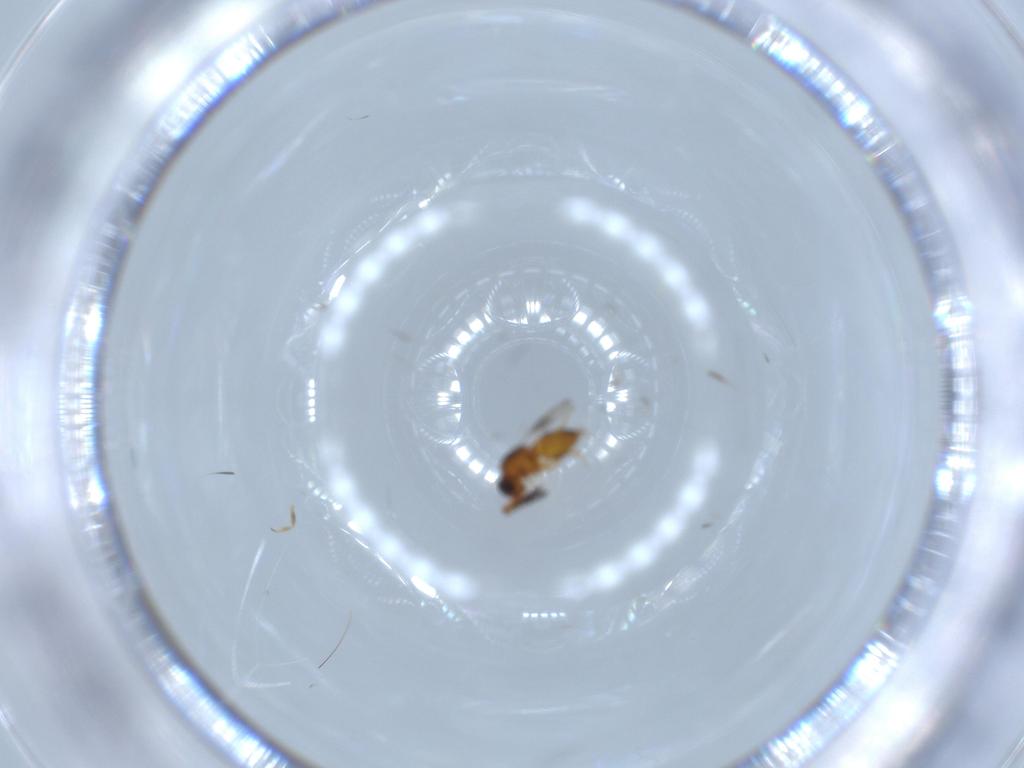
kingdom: Animalia
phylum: Arthropoda
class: Insecta
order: Hymenoptera
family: Ceraphronidae
